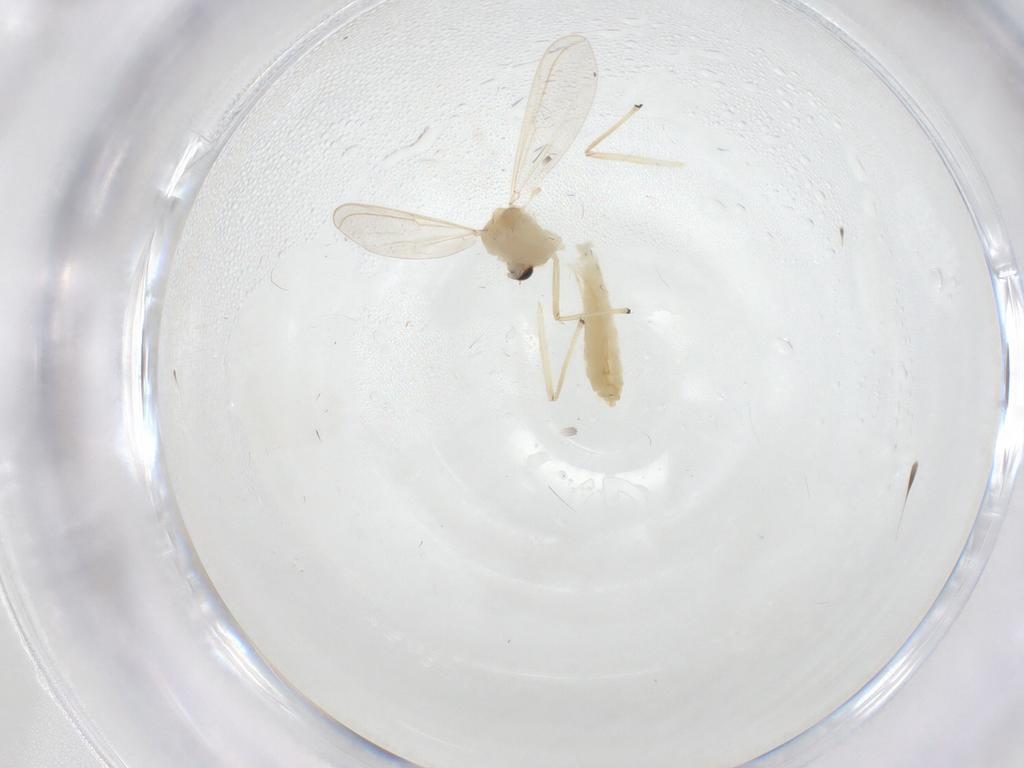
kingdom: Animalia
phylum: Arthropoda
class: Insecta
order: Diptera
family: Chironomidae
